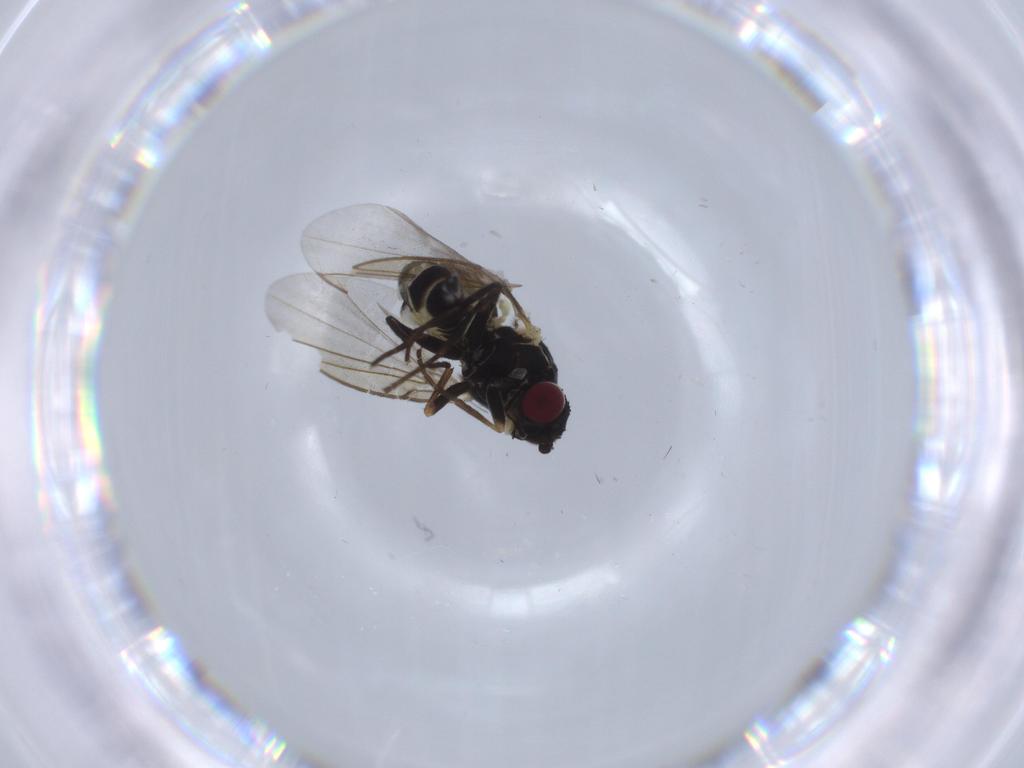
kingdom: Animalia
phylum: Arthropoda
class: Insecta
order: Diptera
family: Agromyzidae
